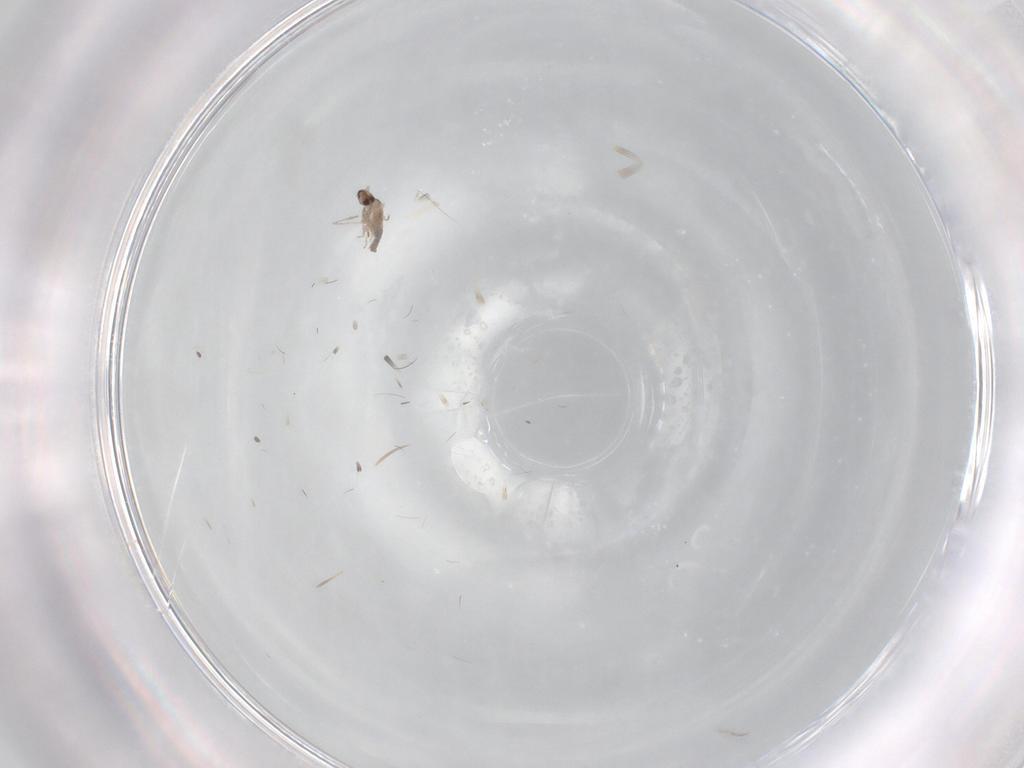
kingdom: Animalia
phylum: Arthropoda
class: Insecta
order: Diptera
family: Cecidomyiidae
